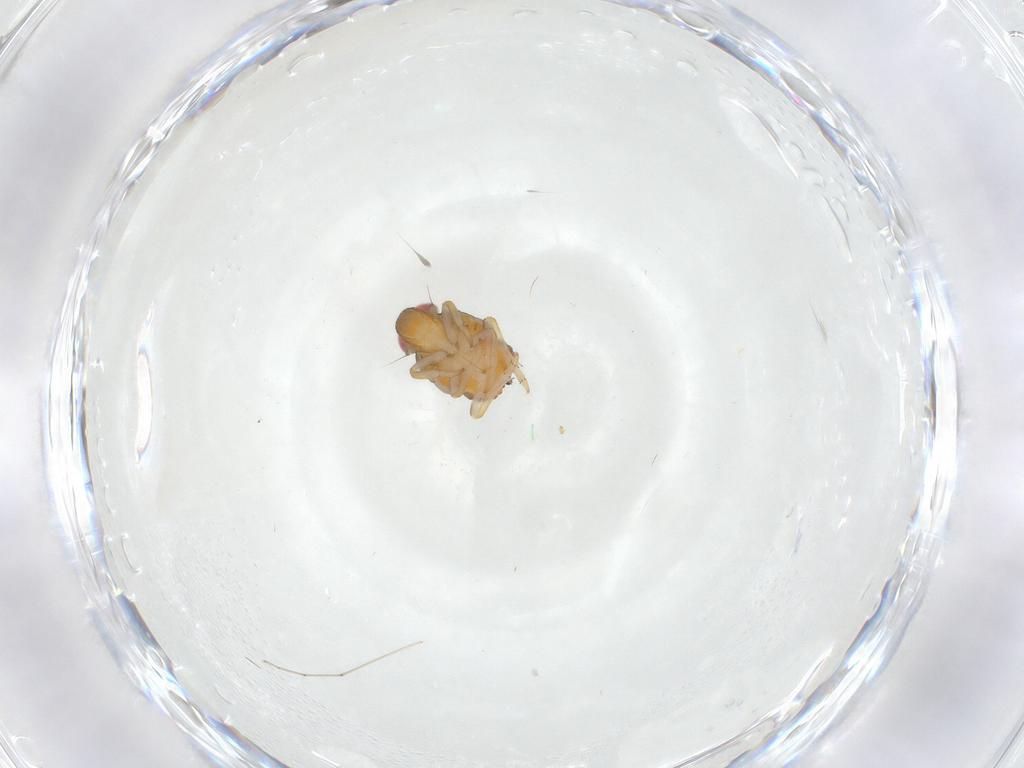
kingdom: Animalia
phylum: Arthropoda
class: Insecta
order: Hemiptera
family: Issidae
